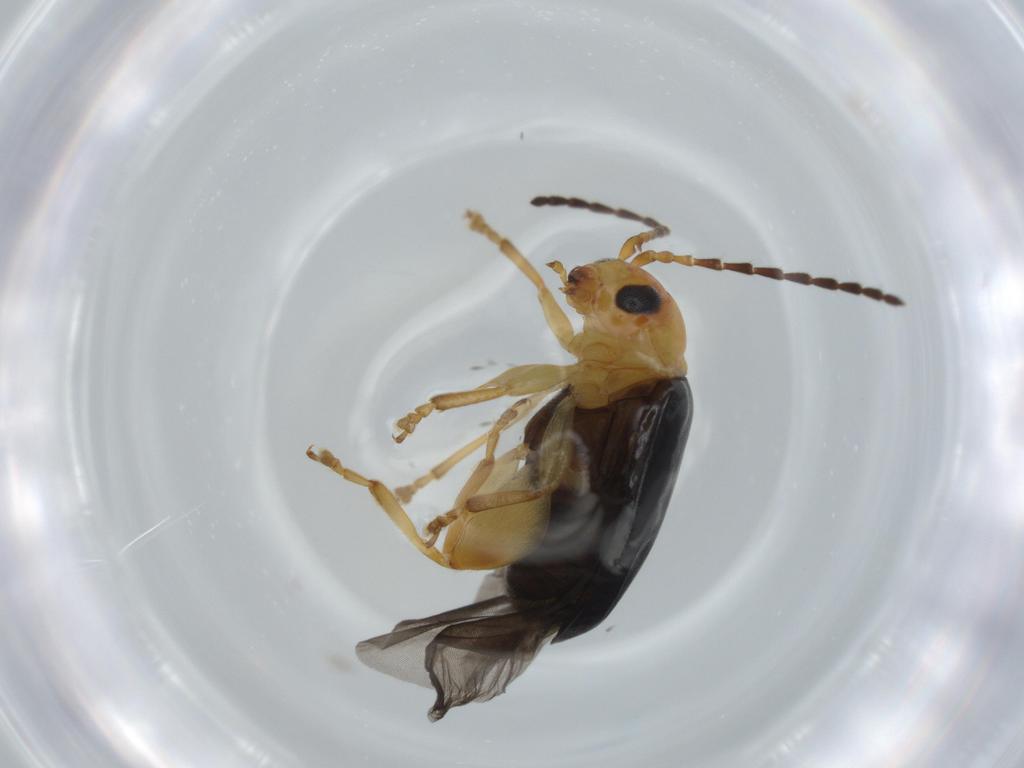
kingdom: Animalia
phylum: Arthropoda
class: Insecta
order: Coleoptera
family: Chrysomelidae
